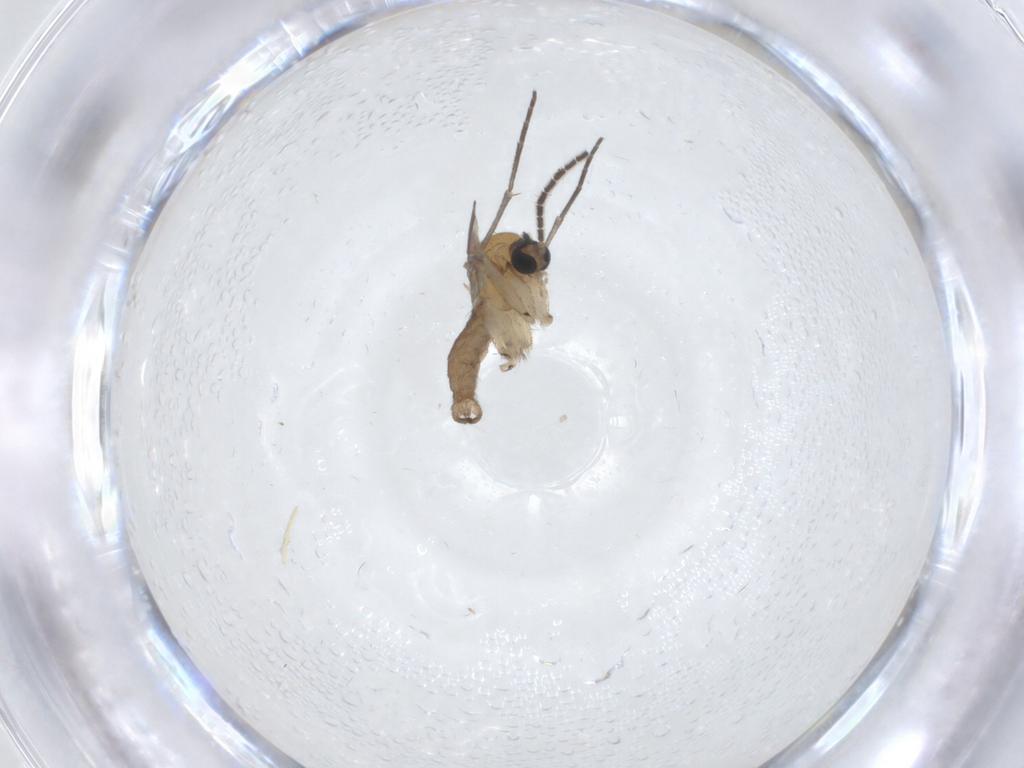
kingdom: Animalia
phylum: Arthropoda
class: Insecta
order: Diptera
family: Sciaridae
